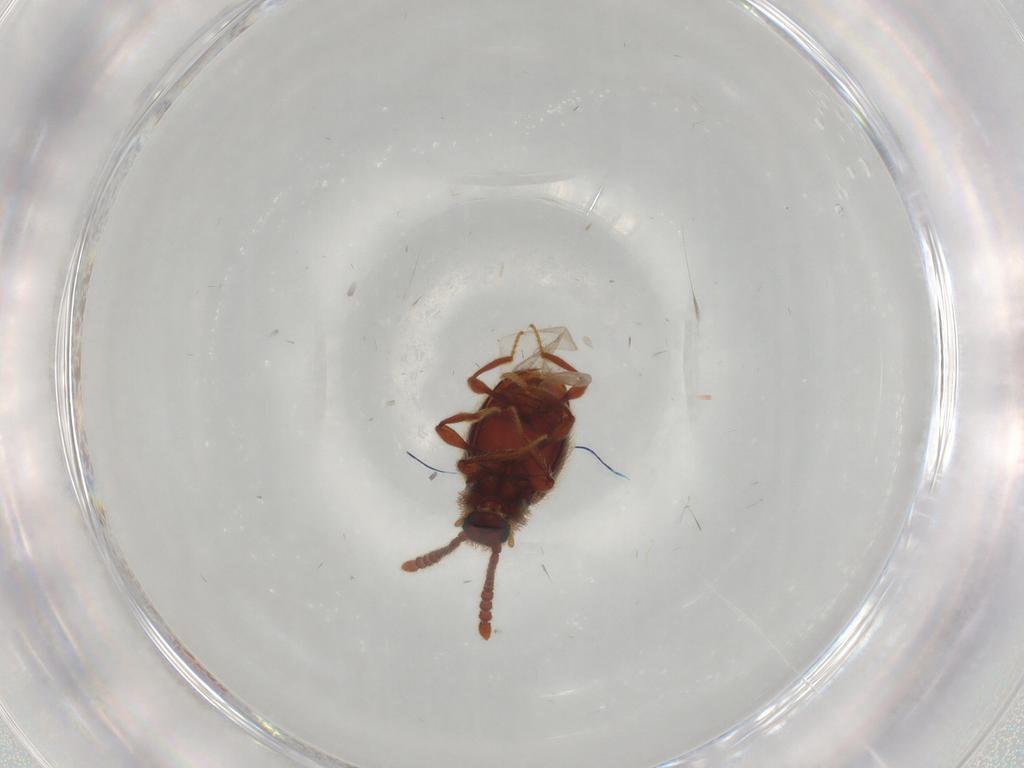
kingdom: Animalia
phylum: Arthropoda
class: Insecta
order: Coleoptera
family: Staphylinidae
